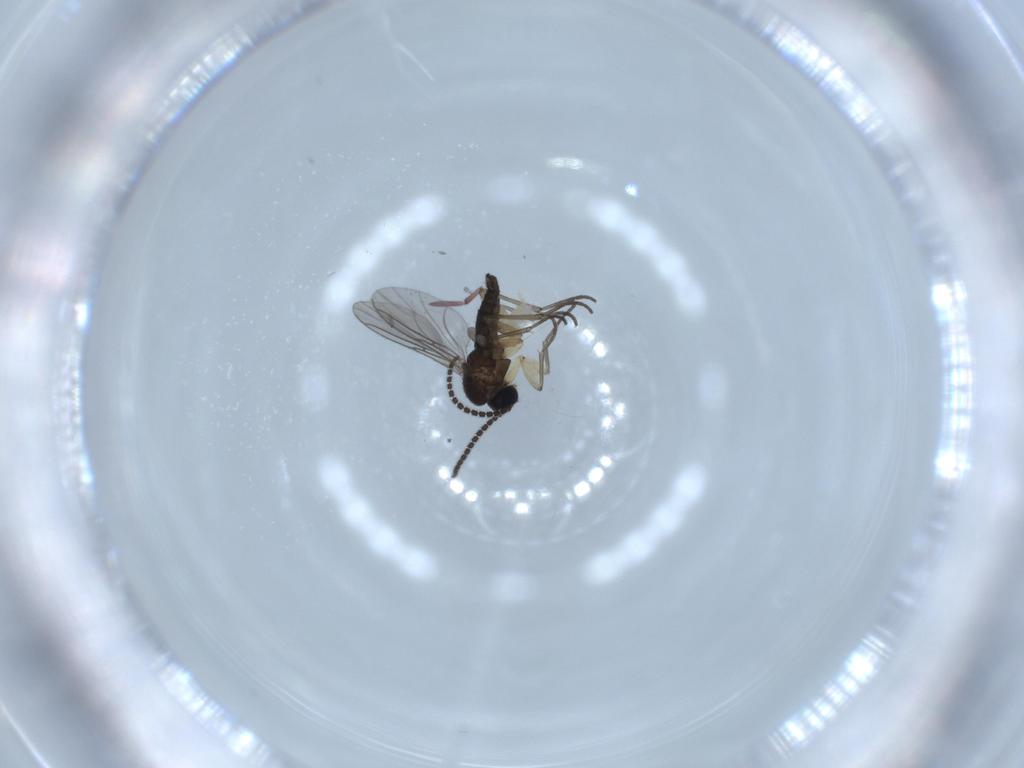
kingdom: Animalia
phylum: Arthropoda
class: Insecta
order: Diptera
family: Sciaridae
